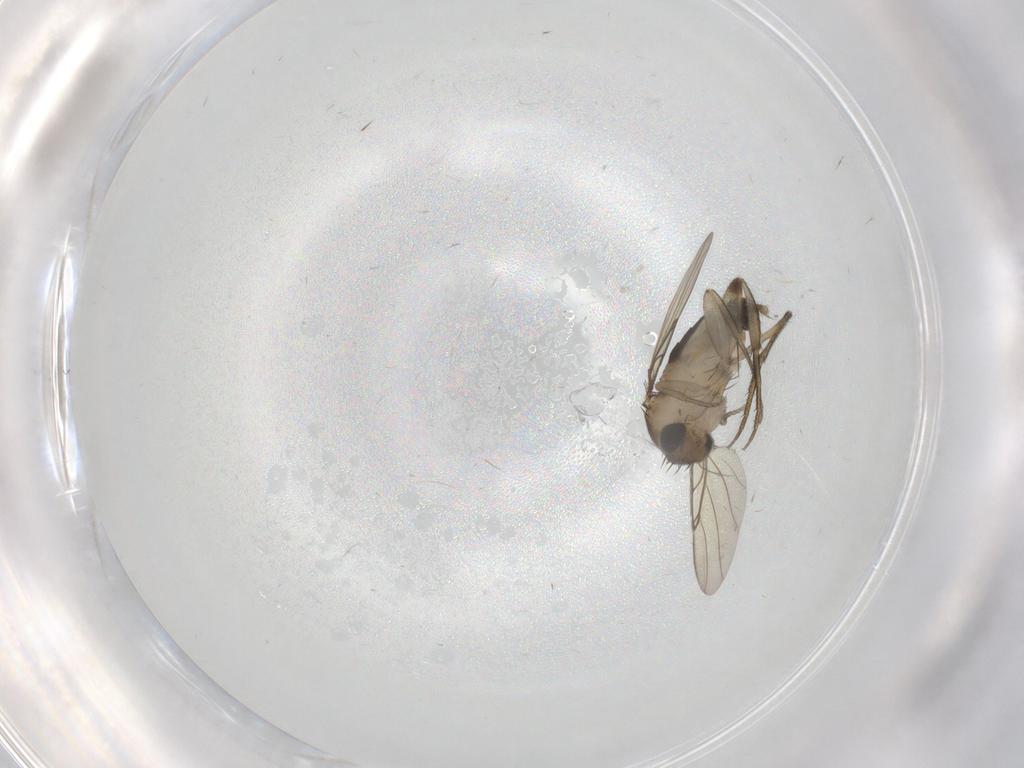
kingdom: Animalia
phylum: Arthropoda
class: Insecta
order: Diptera
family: Phoridae
